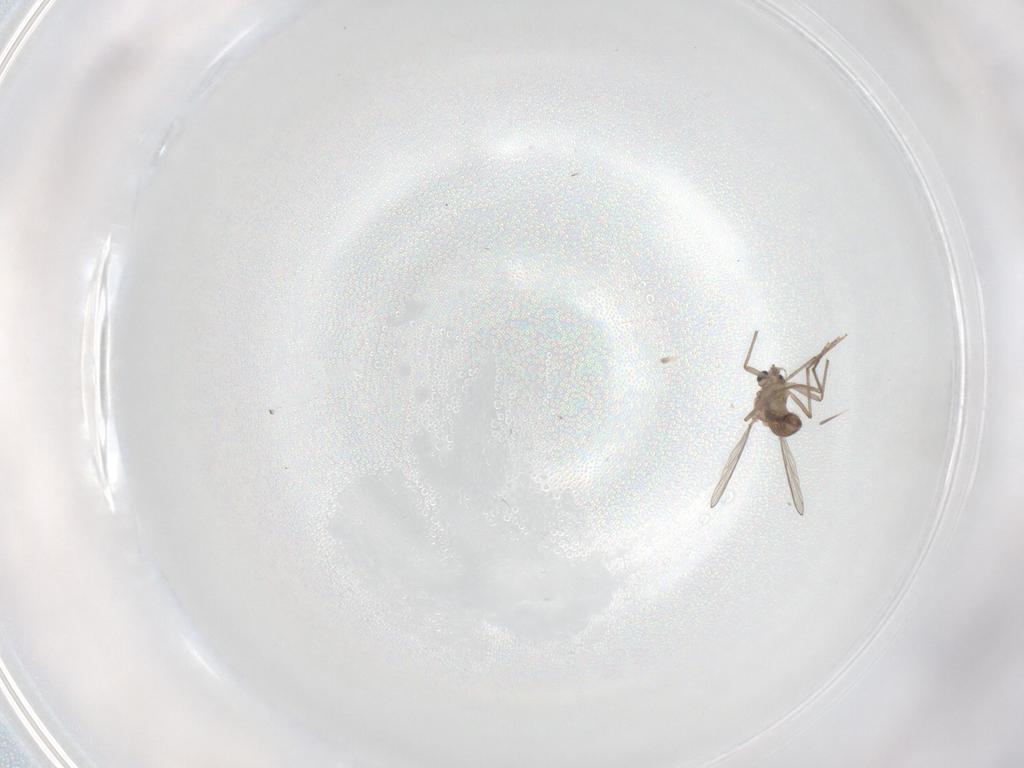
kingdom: Animalia
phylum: Arthropoda
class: Insecta
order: Diptera
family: Chironomidae
